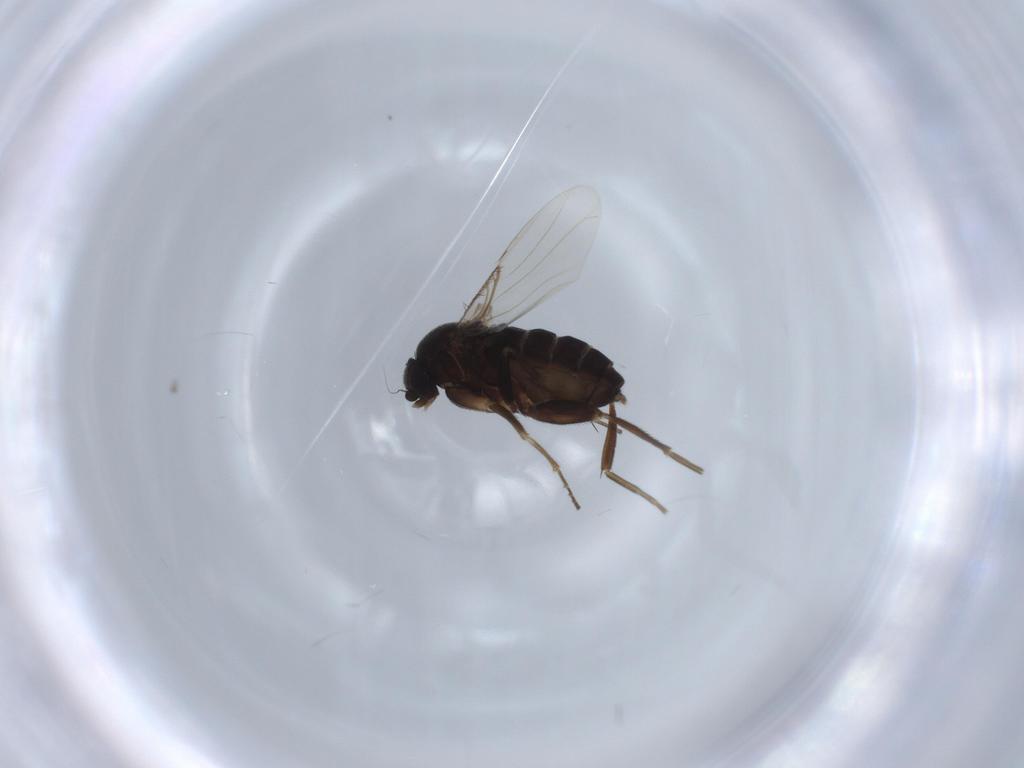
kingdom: Animalia
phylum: Arthropoda
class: Insecta
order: Diptera
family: Phoridae
